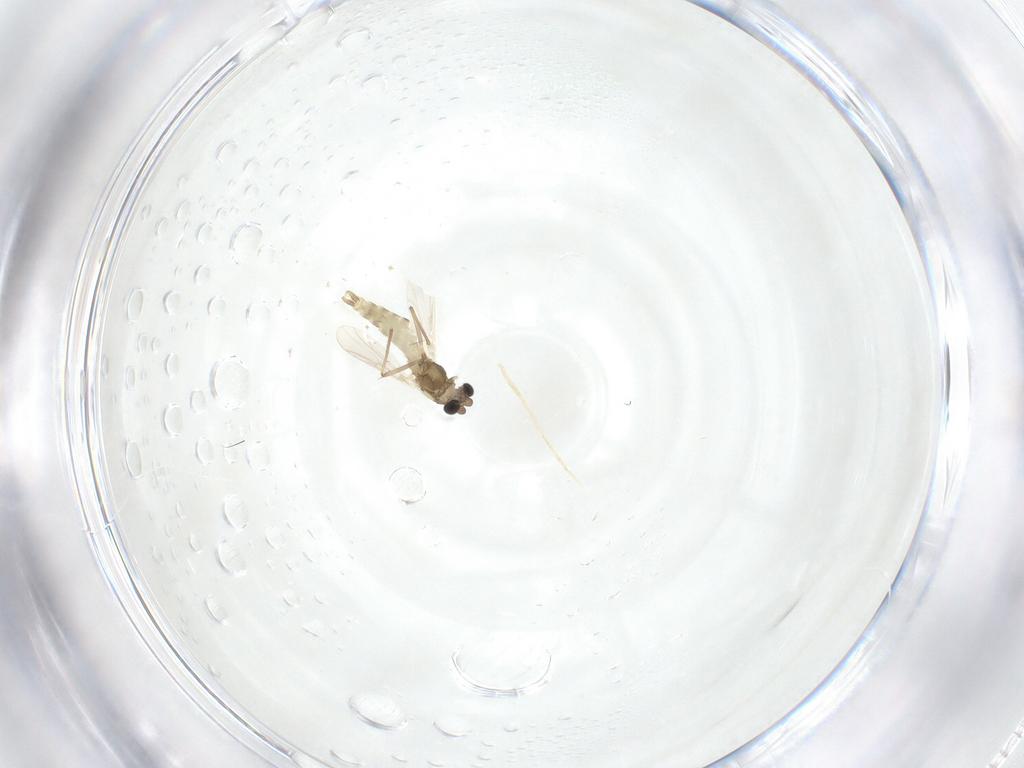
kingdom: Animalia
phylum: Arthropoda
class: Insecta
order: Diptera
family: Chironomidae
